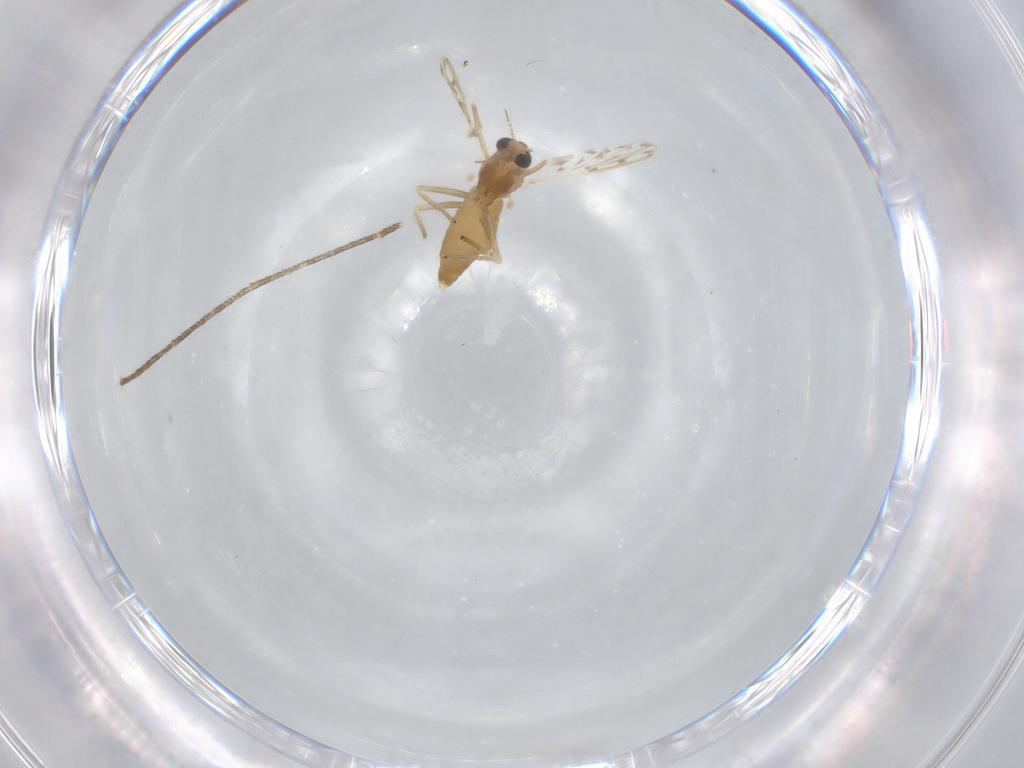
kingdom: Animalia
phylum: Arthropoda
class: Insecta
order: Diptera
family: Chironomidae
